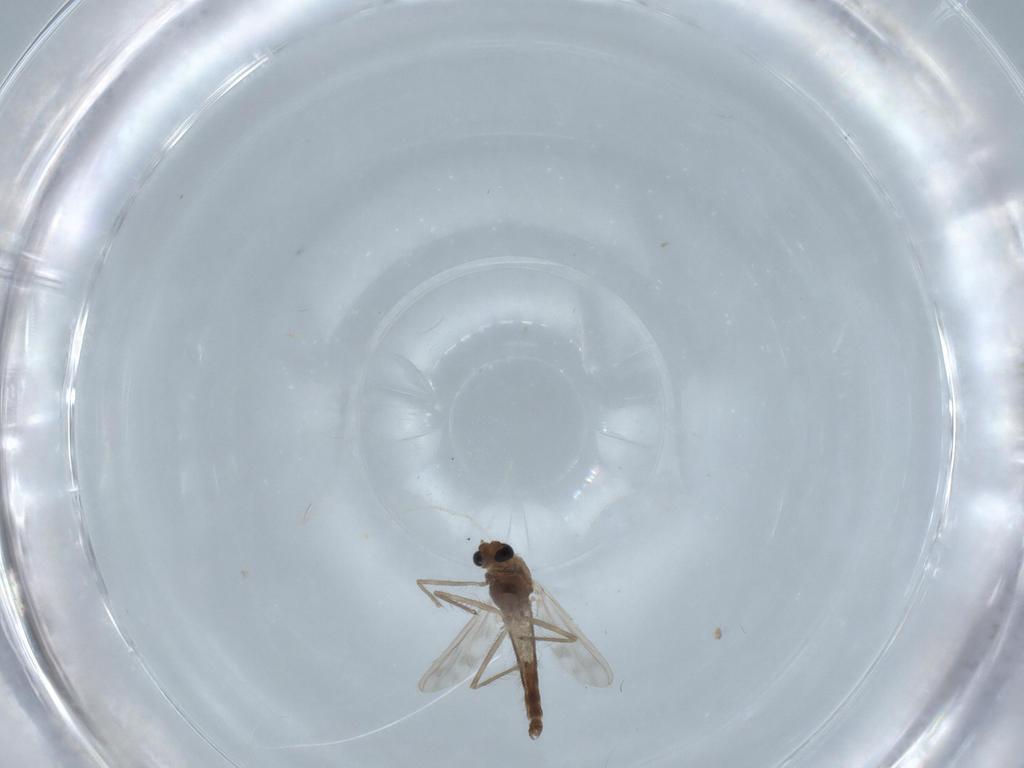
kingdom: Animalia
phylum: Arthropoda
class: Insecta
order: Diptera
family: Chironomidae
